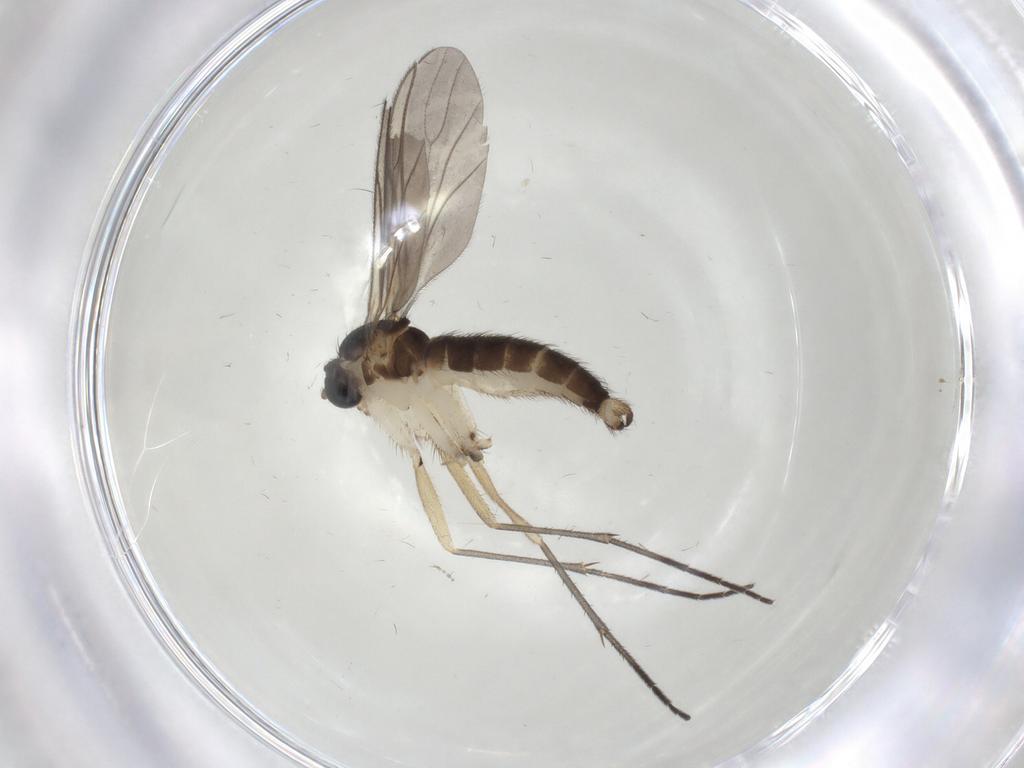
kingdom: Animalia
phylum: Arthropoda
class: Insecta
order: Diptera
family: Sciaridae
